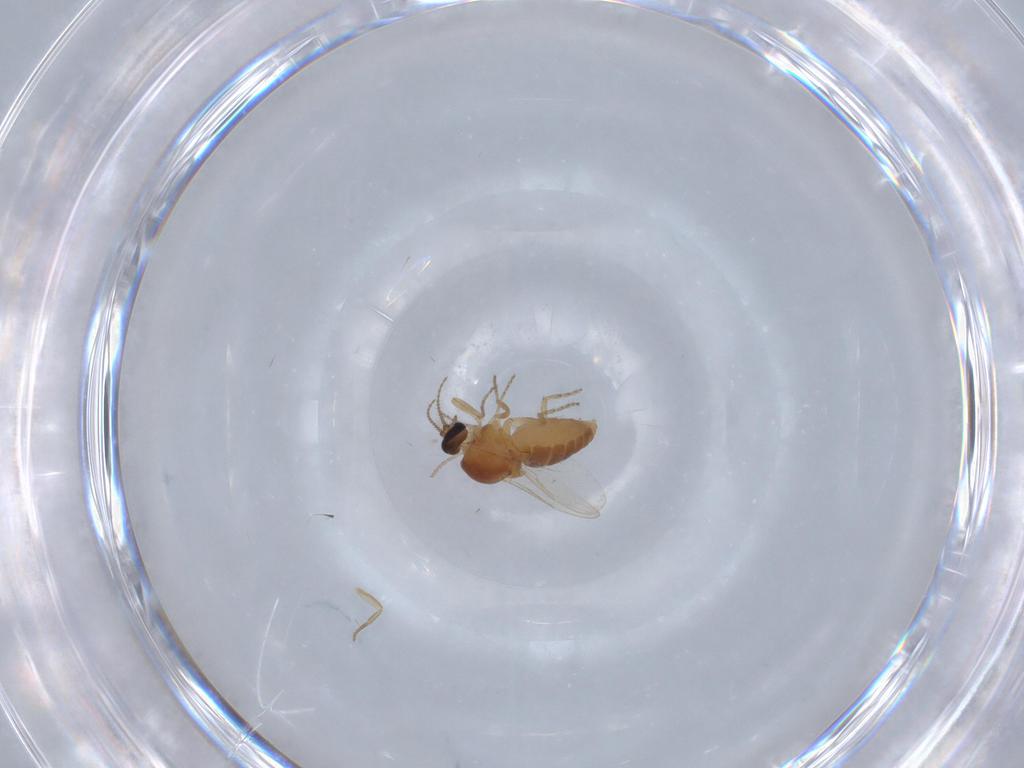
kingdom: Animalia
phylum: Arthropoda
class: Insecta
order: Diptera
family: Ceratopogonidae
